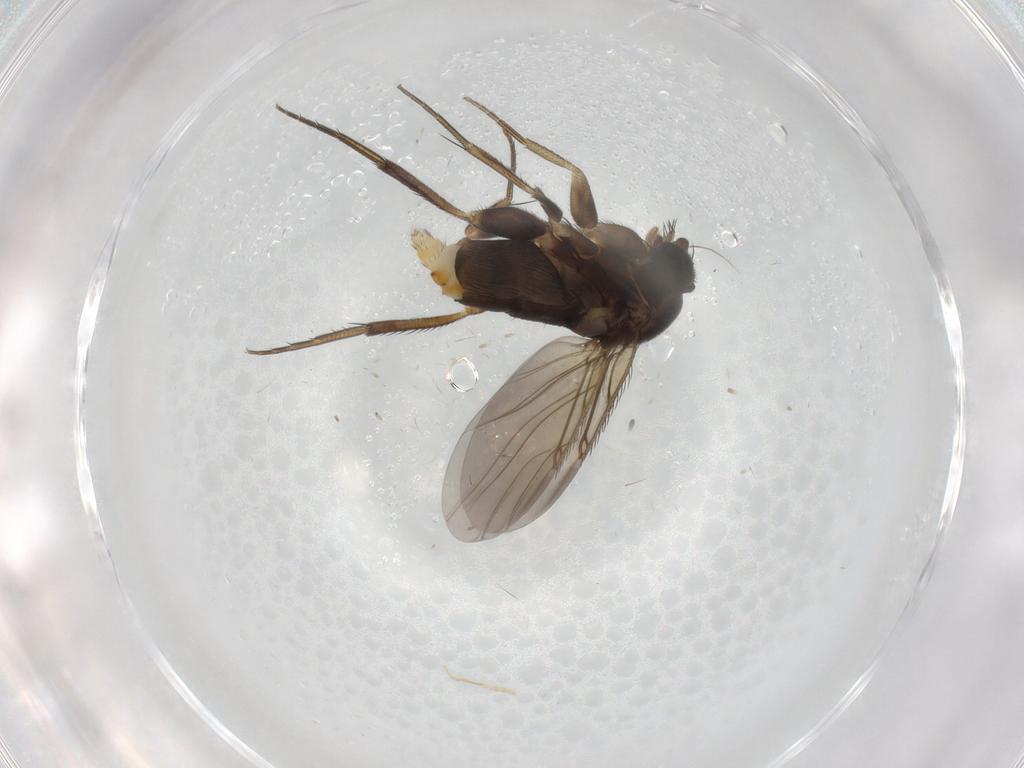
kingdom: Animalia
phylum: Arthropoda
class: Insecta
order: Diptera
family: Phoridae
